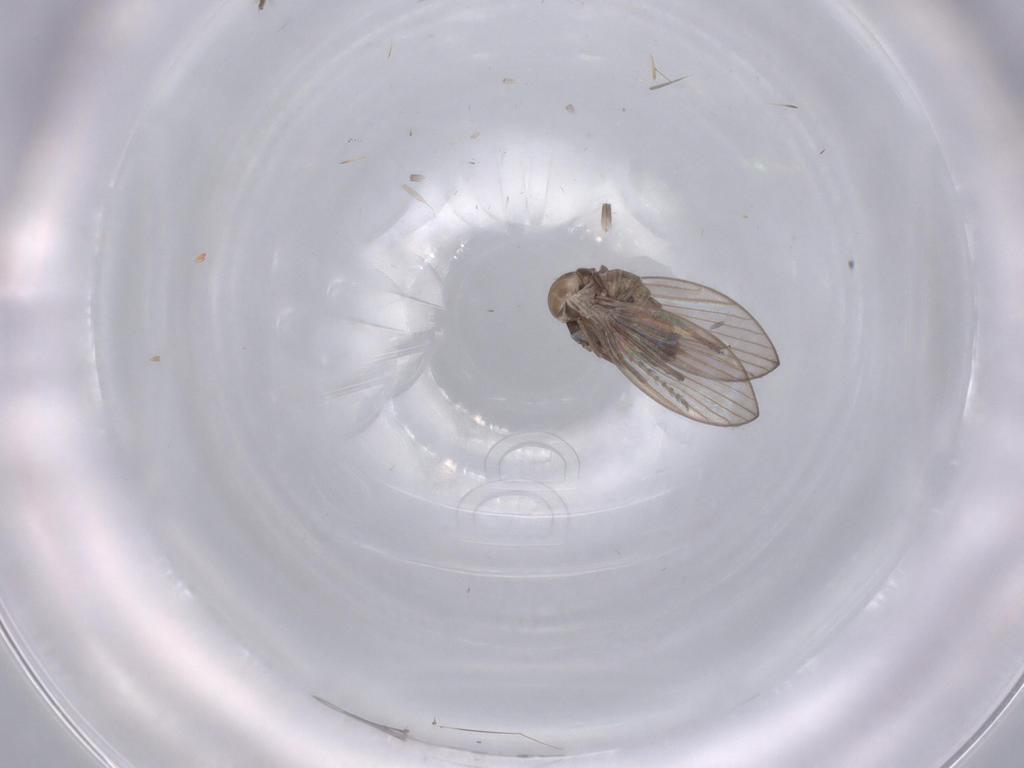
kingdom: Animalia
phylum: Arthropoda
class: Insecta
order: Diptera
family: Psychodidae
